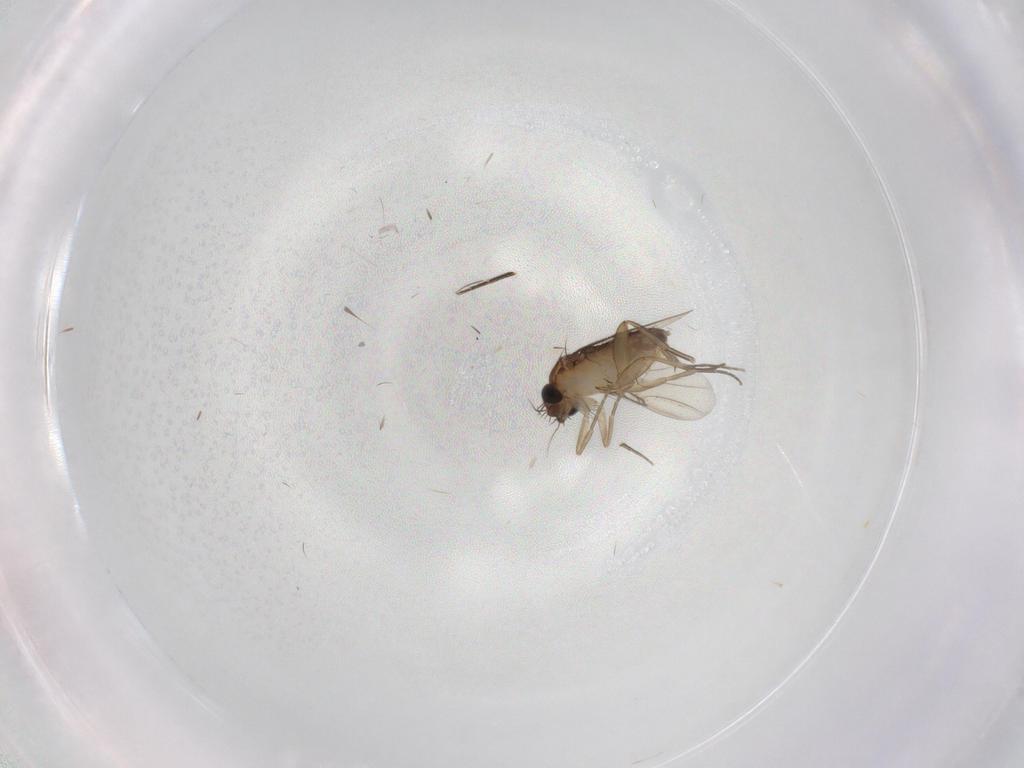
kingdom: Animalia
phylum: Arthropoda
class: Insecta
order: Diptera
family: Phoridae
